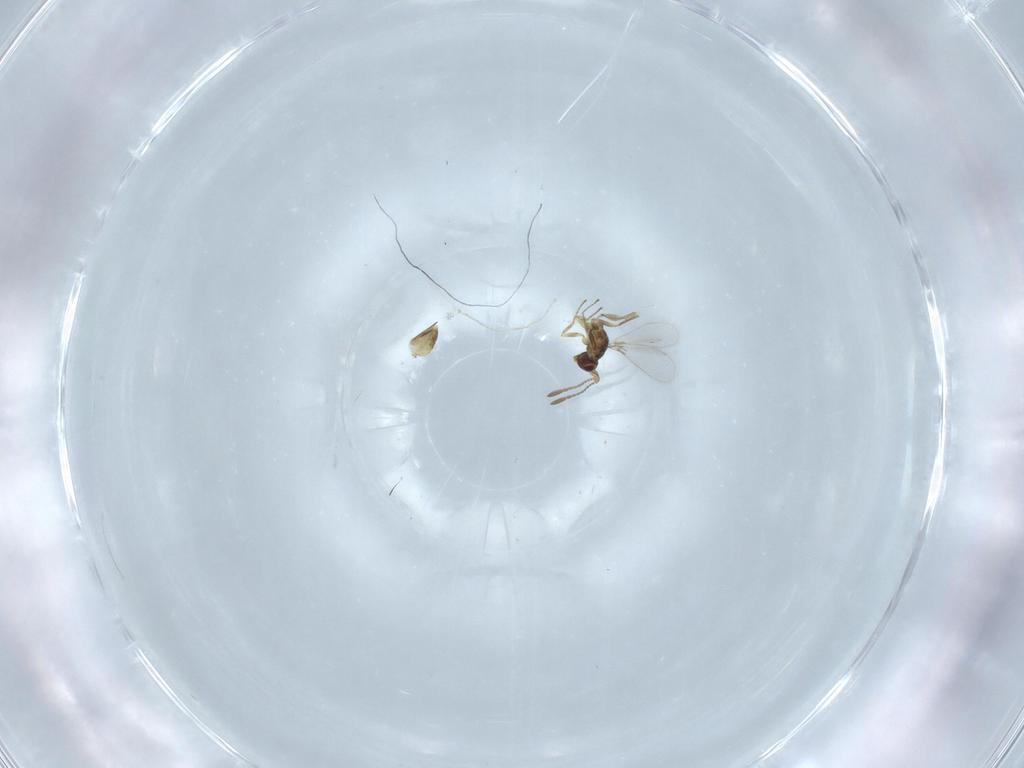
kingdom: Animalia
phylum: Arthropoda
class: Insecta
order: Hymenoptera
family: Mymaridae
